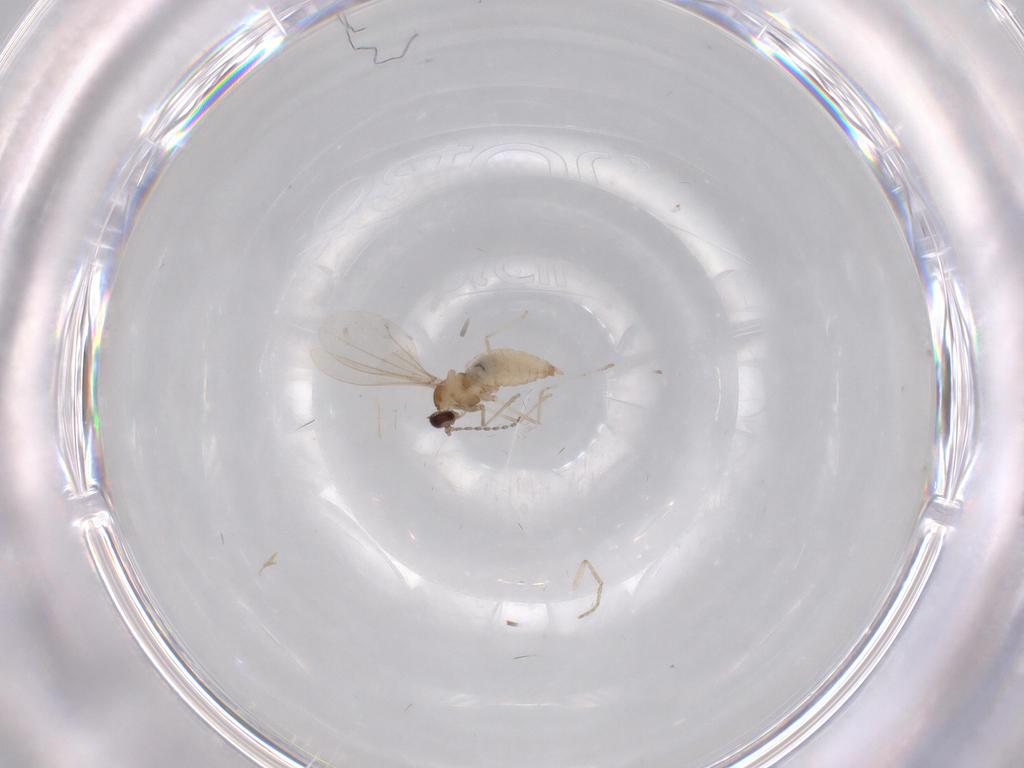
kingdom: Animalia
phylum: Arthropoda
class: Insecta
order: Diptera
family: Cecidomyiidae
